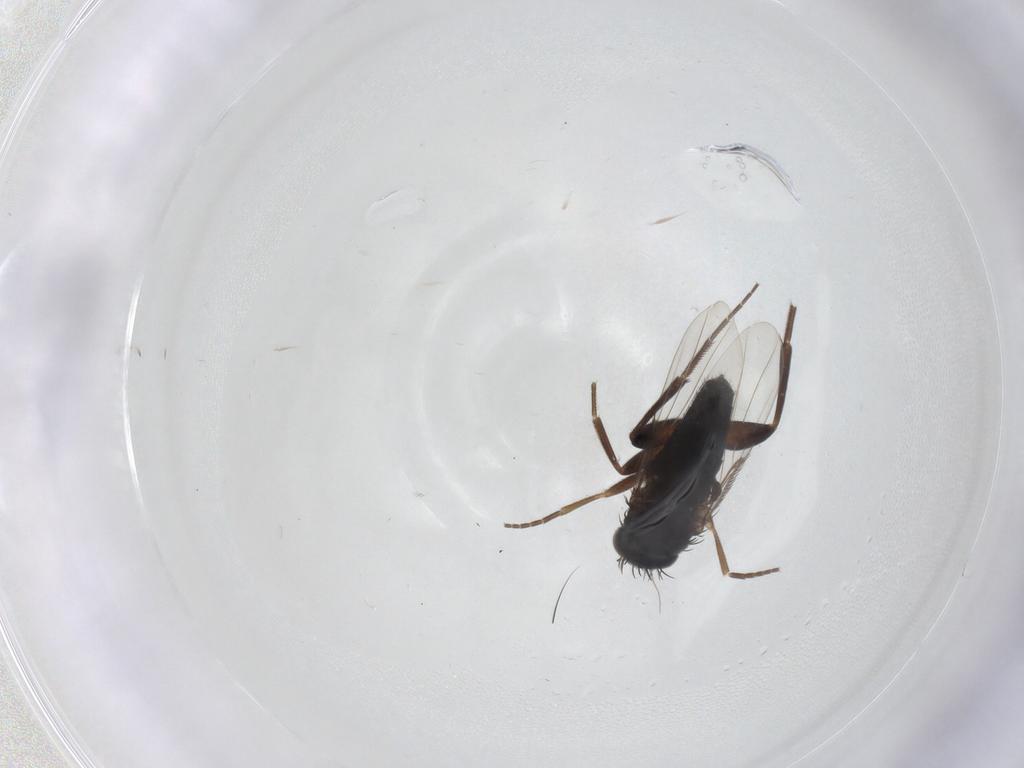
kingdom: Animalia
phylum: Arthropoda
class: Insecta
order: Diptera
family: Phoridae
